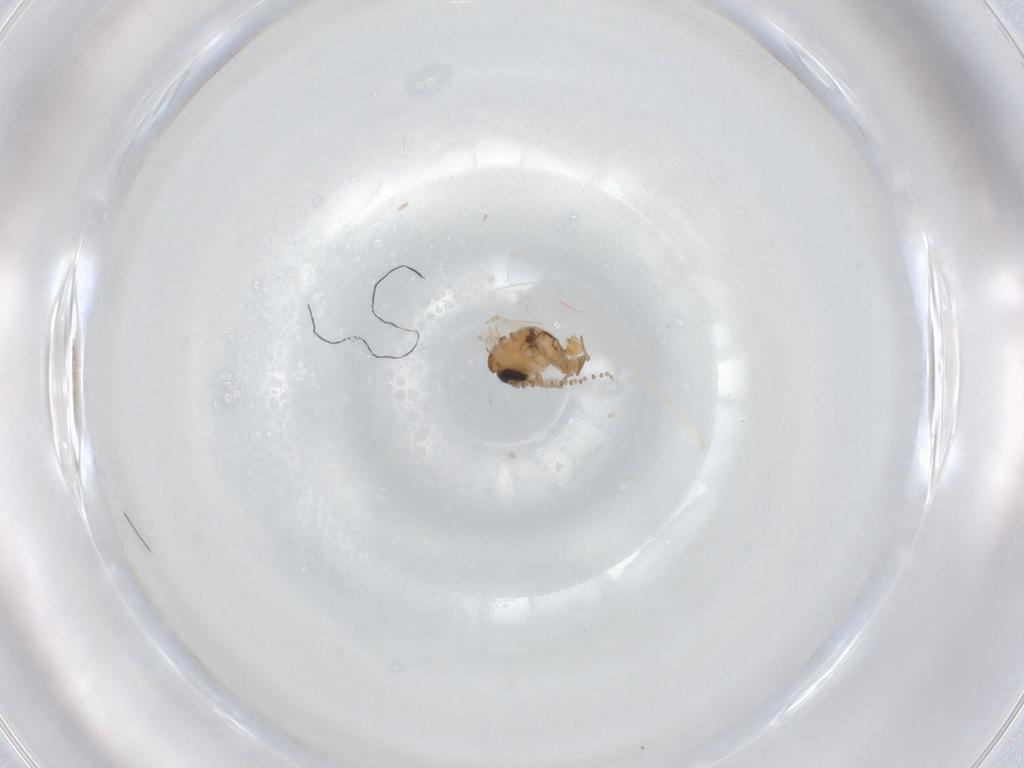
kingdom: Animalia
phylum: Arthropoda
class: Insecta
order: Diptera
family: Psychodidae
